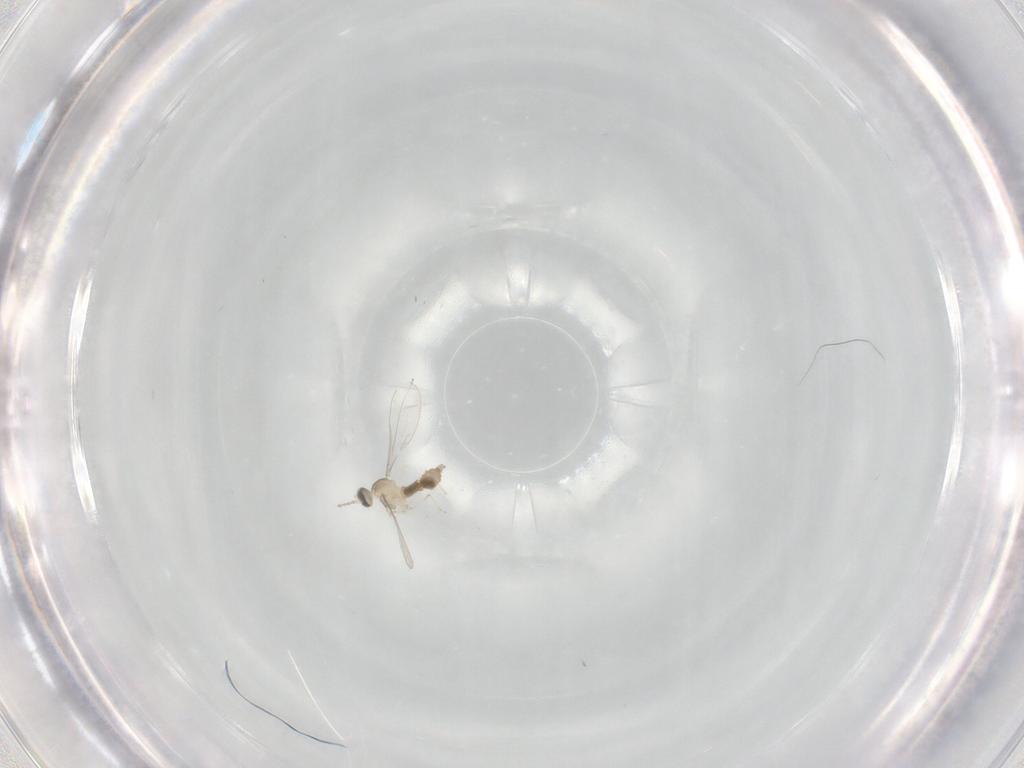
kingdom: Animalia
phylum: Arthropoda
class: Insecta
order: Diptera
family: Cecidomyiidae
